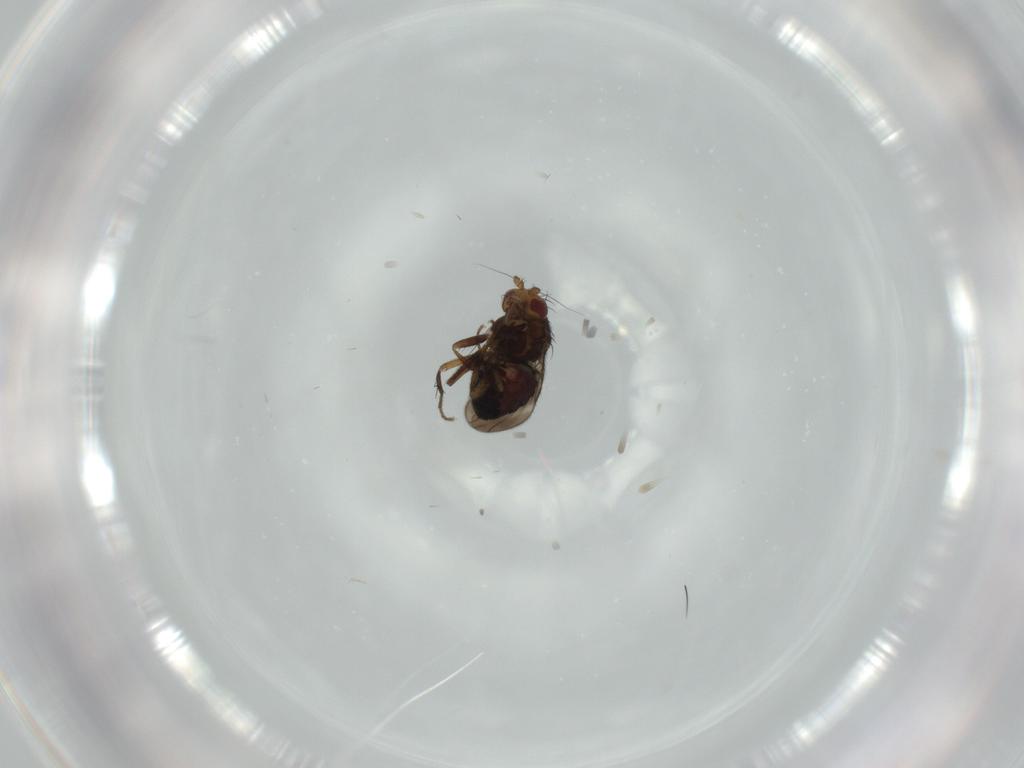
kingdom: Animalia
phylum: Arthropoda
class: Insecta
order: Diptera
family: Sphaeroceridae
